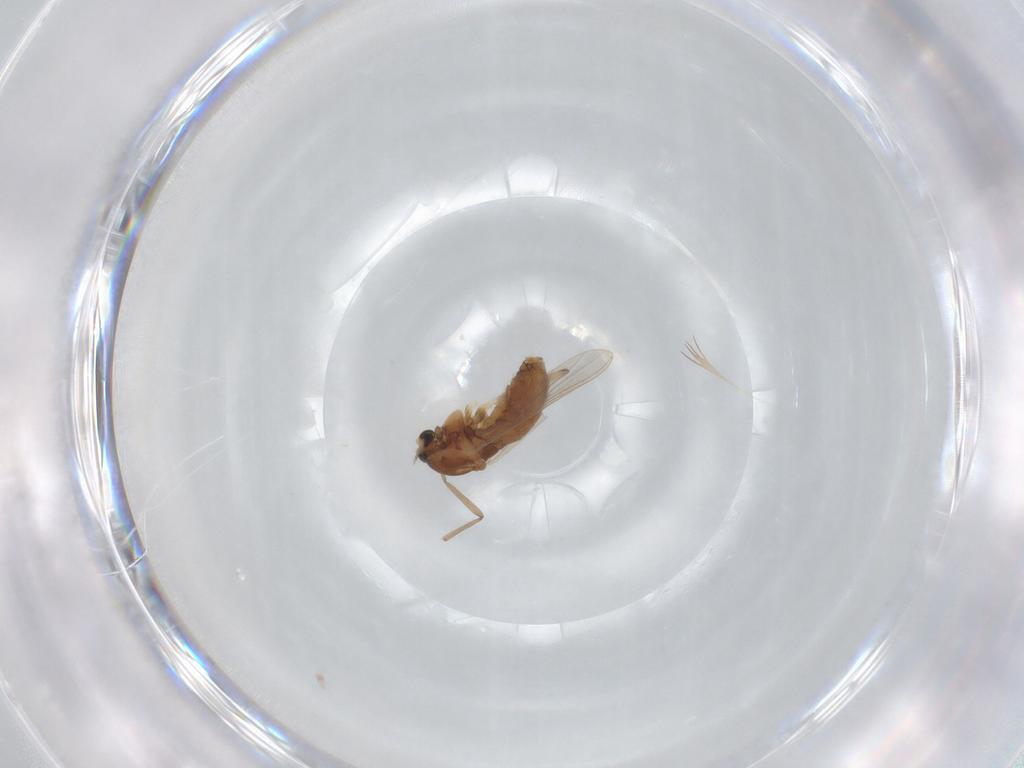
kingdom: Animalia
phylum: Arthropoda
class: Insecta
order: Diptera
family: Chironomidae
